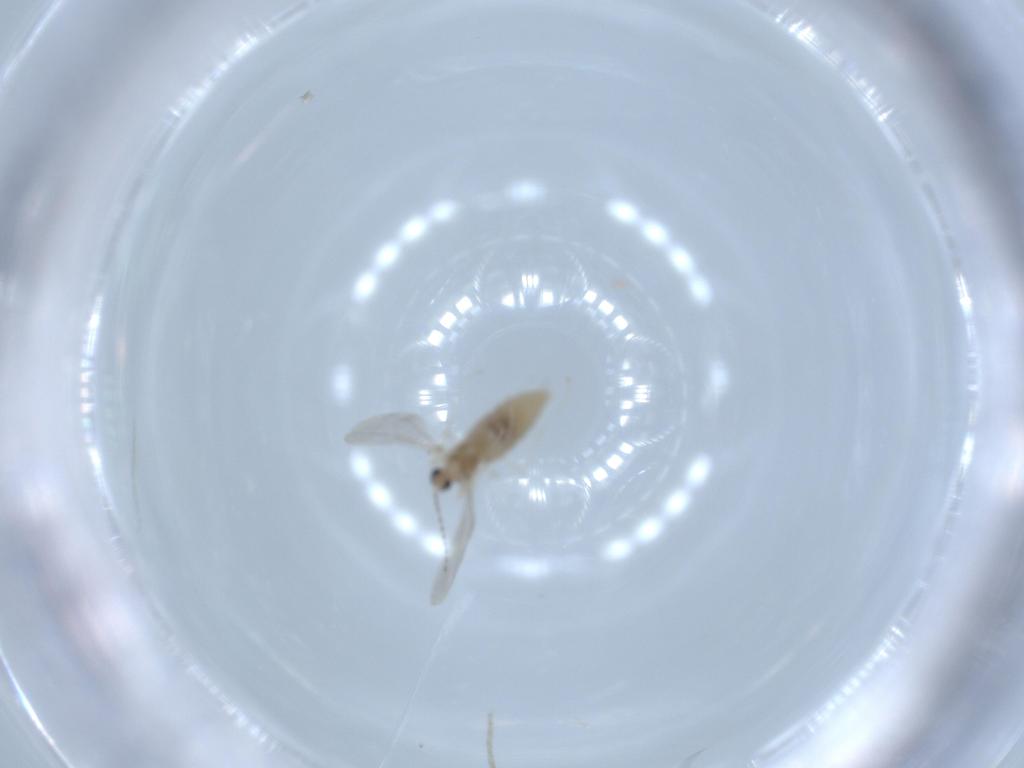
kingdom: Animalia
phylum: Arthropoda
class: Insecta
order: Diptera
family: Cecidomyiidae
